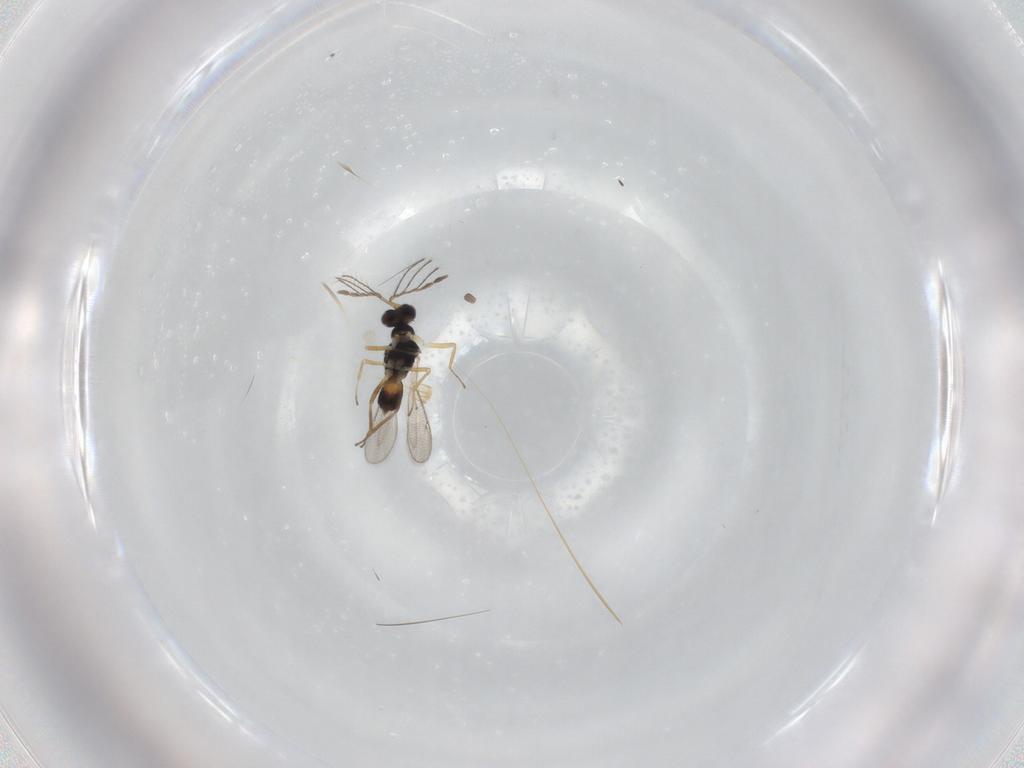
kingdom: Animalia
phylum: Arthropoda
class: Insecta
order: Hymenoptera
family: Eulophidae
